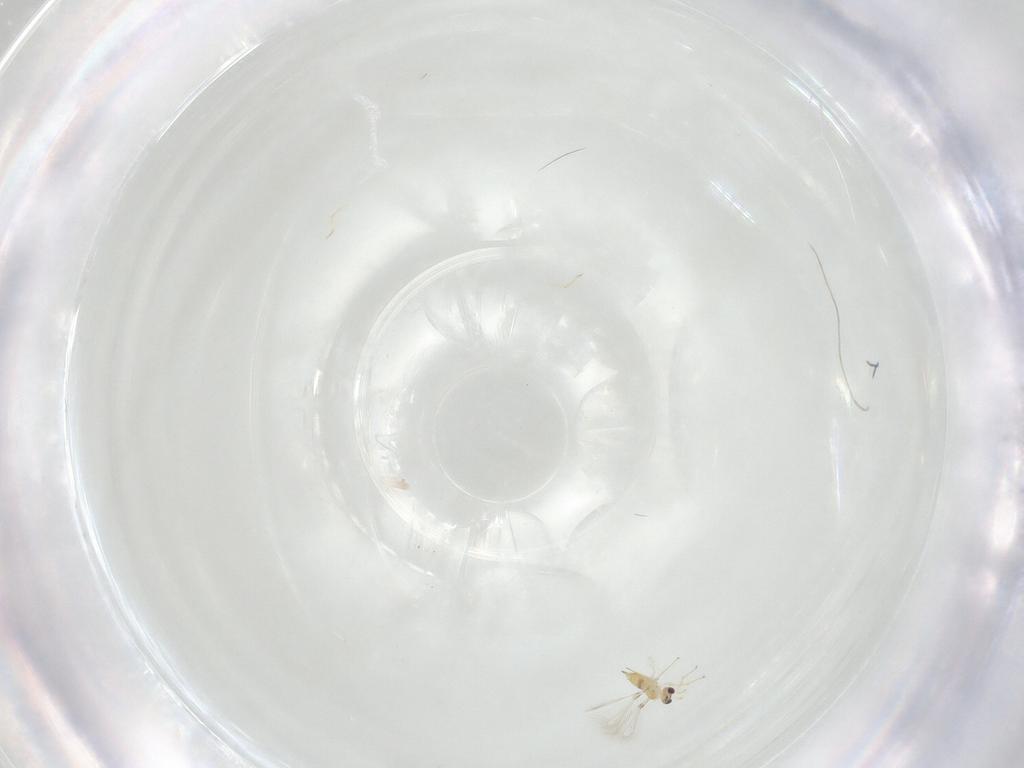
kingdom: Animalia
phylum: Arthropoda
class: Insecta
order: Hymenoptera
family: Mymaridae
